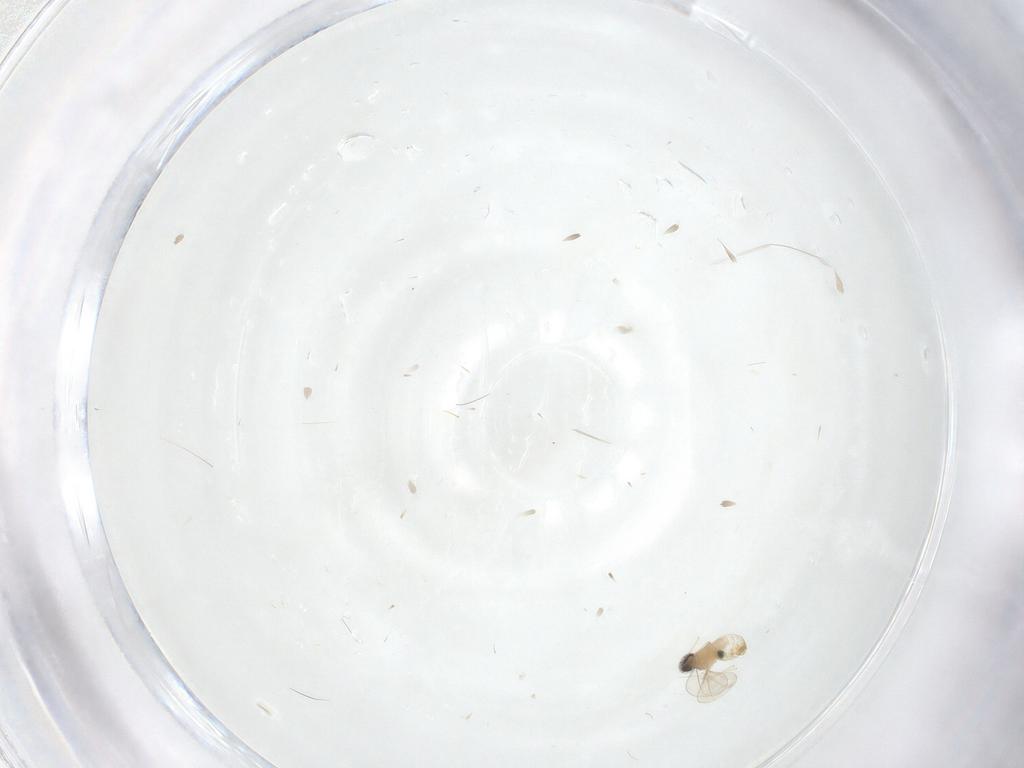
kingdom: Animalia
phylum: Arthropoda
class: Insecta
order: Diptera
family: Cecidomyiidae
